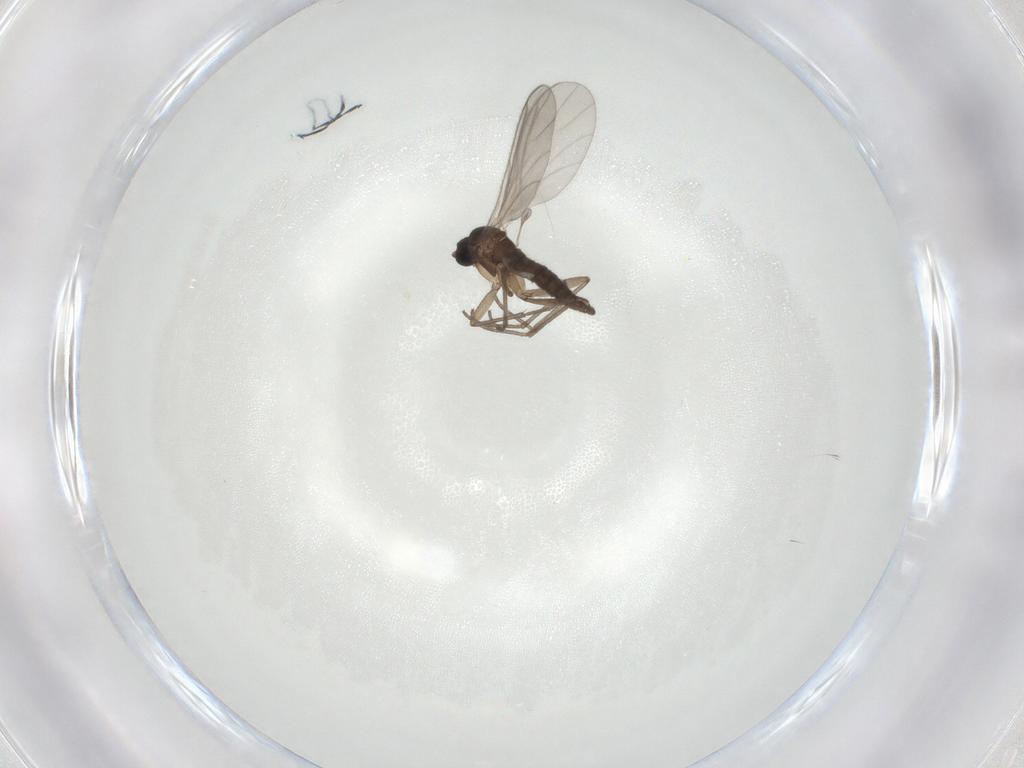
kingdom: Animalia
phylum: Arthropoda
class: Insecta
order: Diptera
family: Sciaridae
